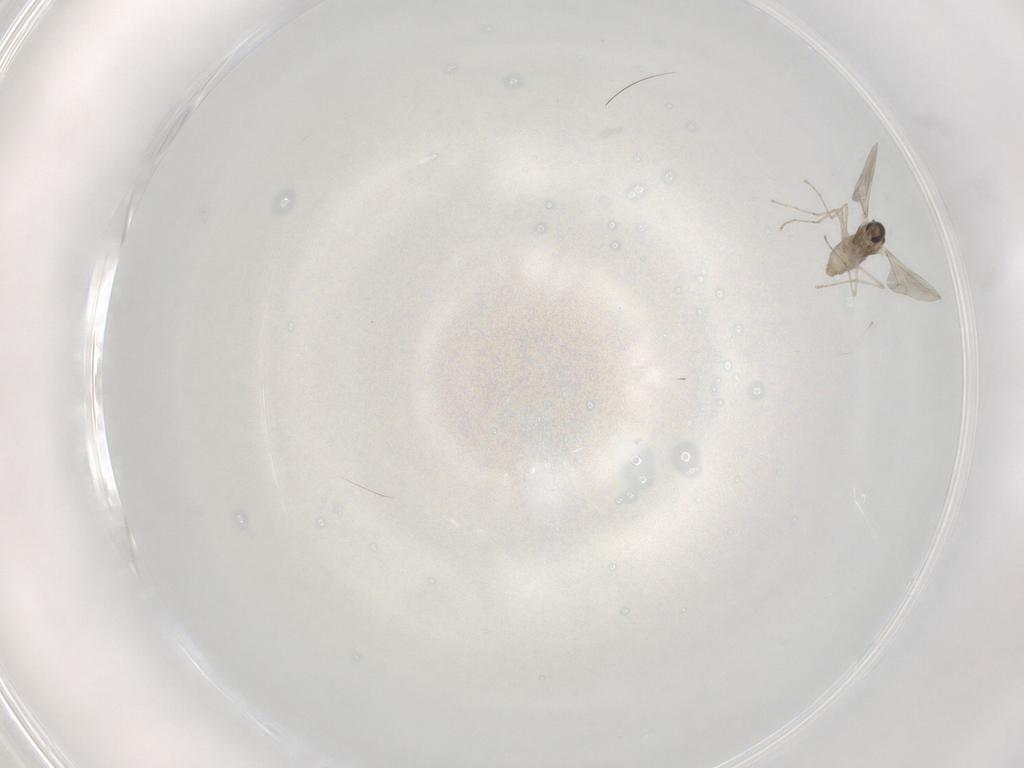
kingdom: Animalia
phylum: Arthropoda
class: Insecta
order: Diptera
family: Cecidomyiidae
